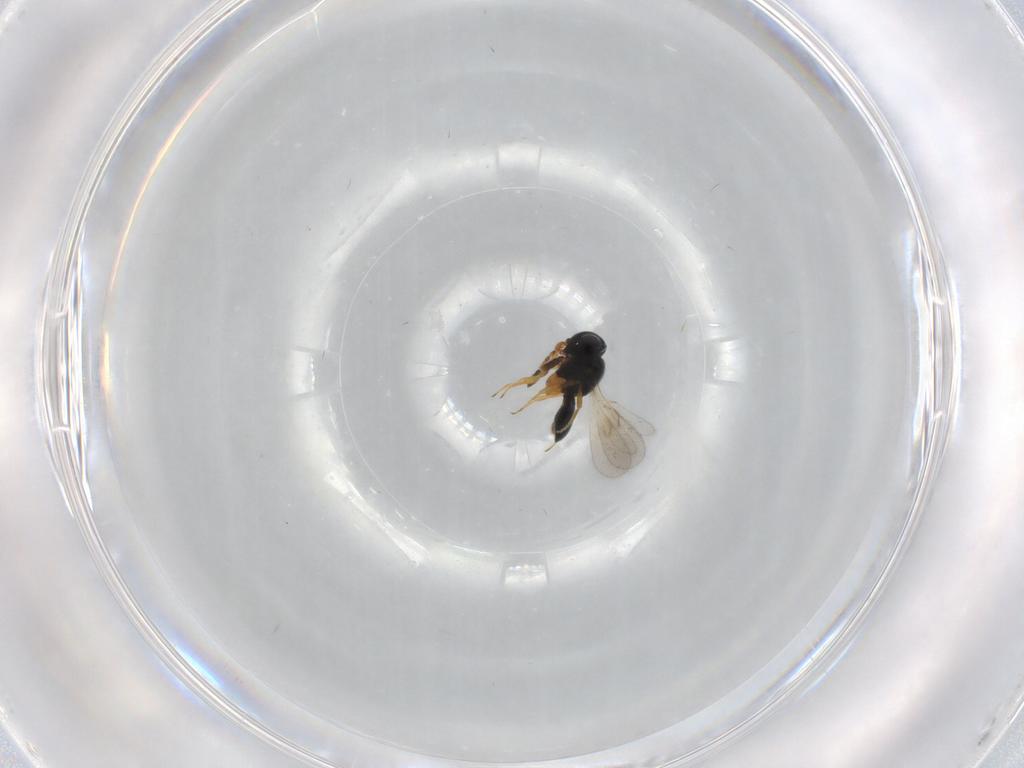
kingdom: Animalia
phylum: Arthropoda
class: Insecta
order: Hymenoptera
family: Scelionidae
